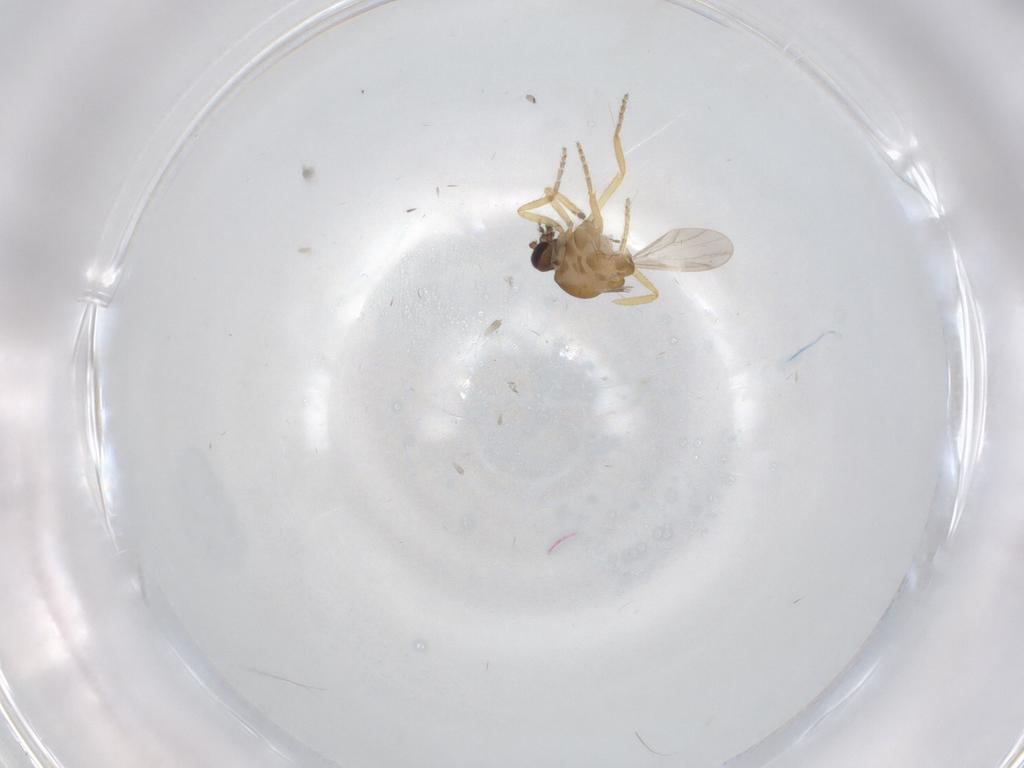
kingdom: Animalia
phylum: Arthropoda
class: Insecta
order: Diptera
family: Ceratopogonidae
